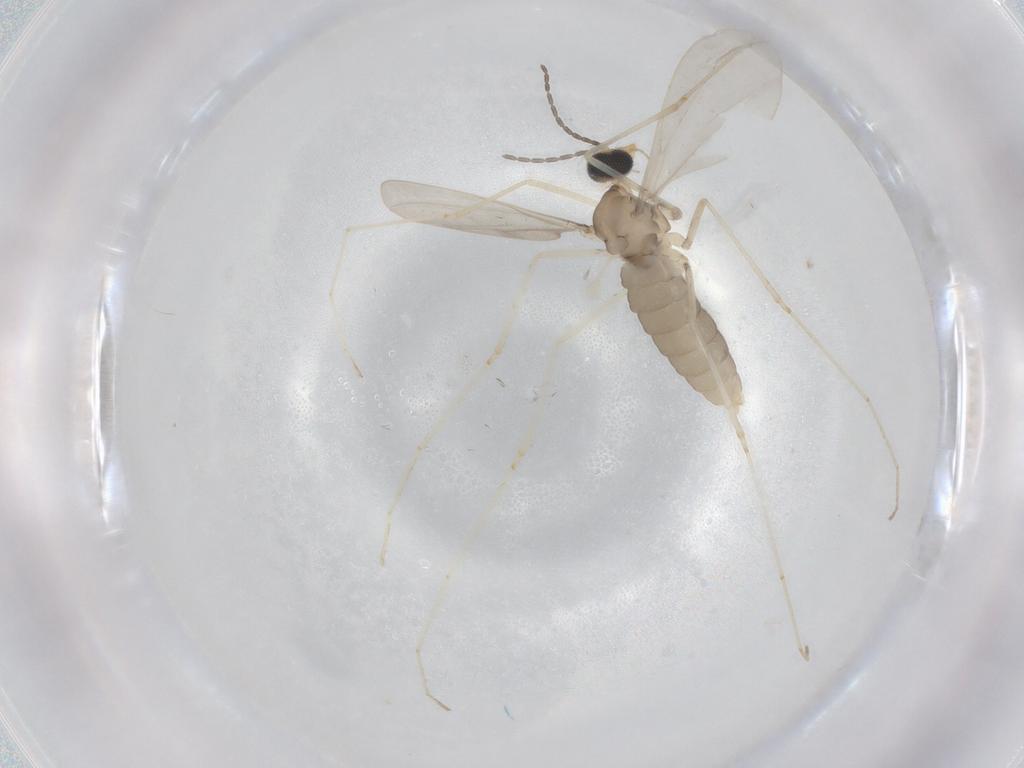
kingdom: Animalia
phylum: Arthropoda
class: Insecta
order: Diptera
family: Cecidomyiidae
